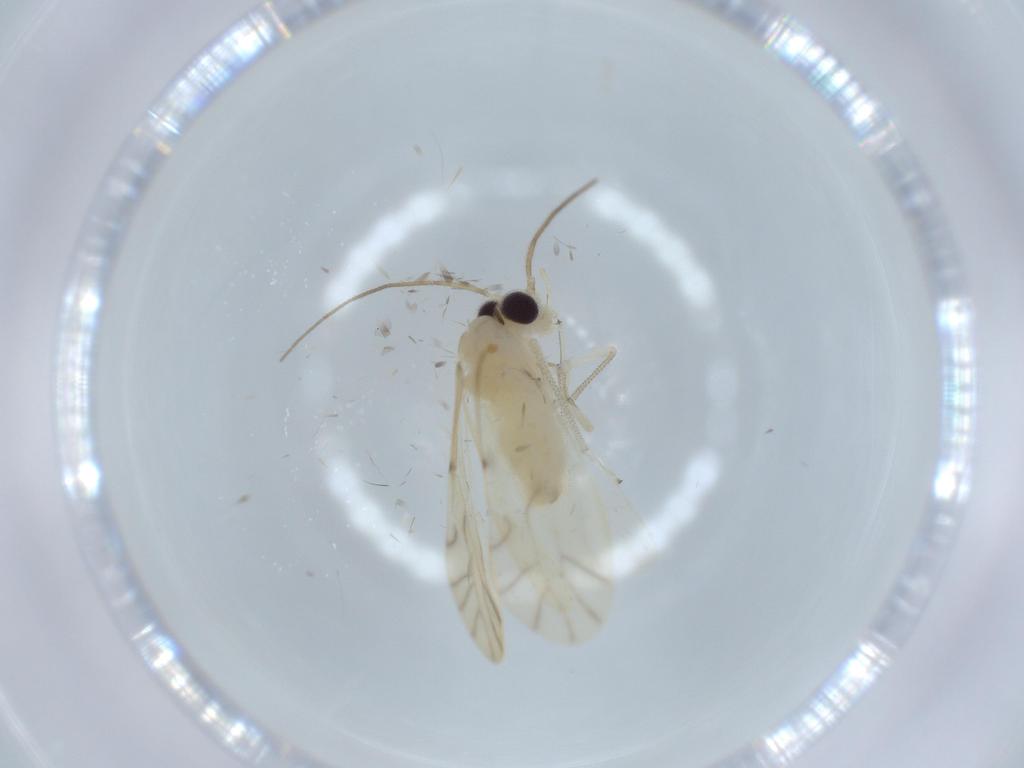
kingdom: Animalia
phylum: Arthropoda
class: Insecta
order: Psocodea
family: Caeciliusidae
